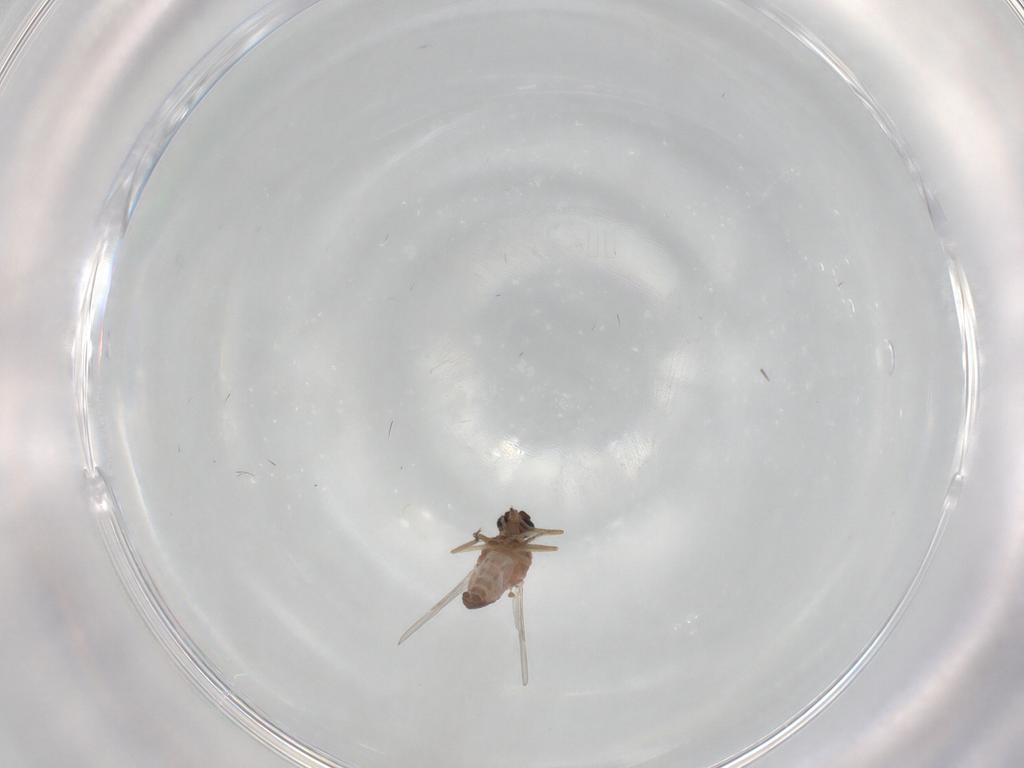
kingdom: Animalia
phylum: Arthropoda
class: Insecta
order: Diptera
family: Ceratopogonidae
